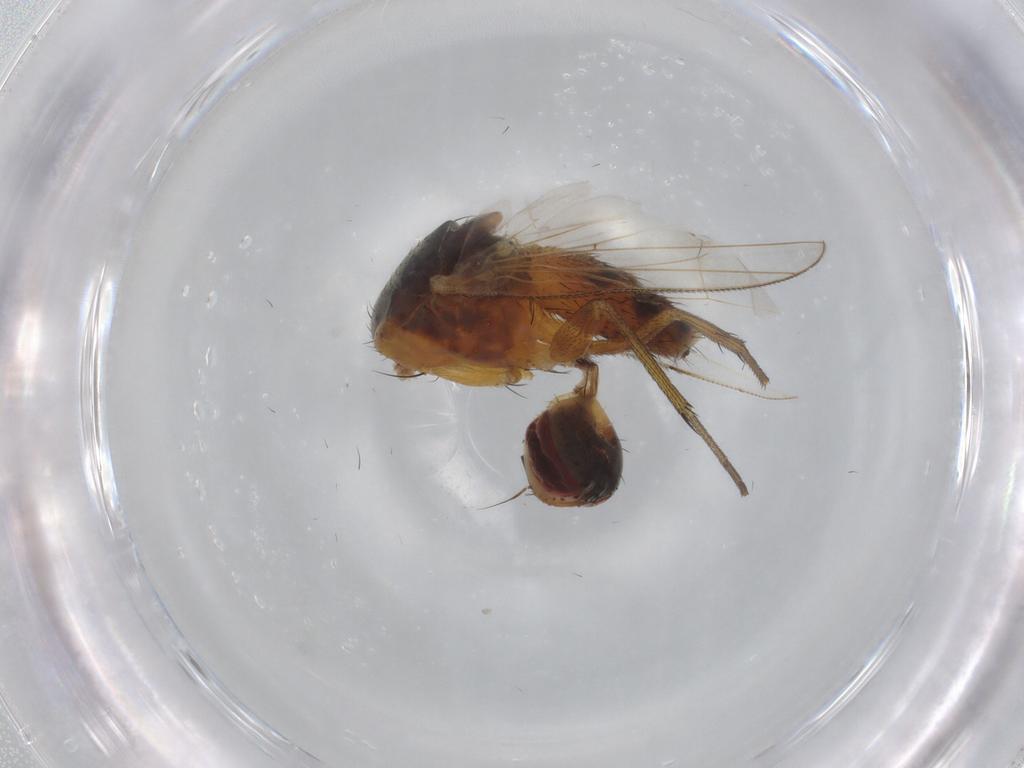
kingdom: Animalia
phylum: Arthropoda
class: Insecta
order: Diptera
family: Muscidae
